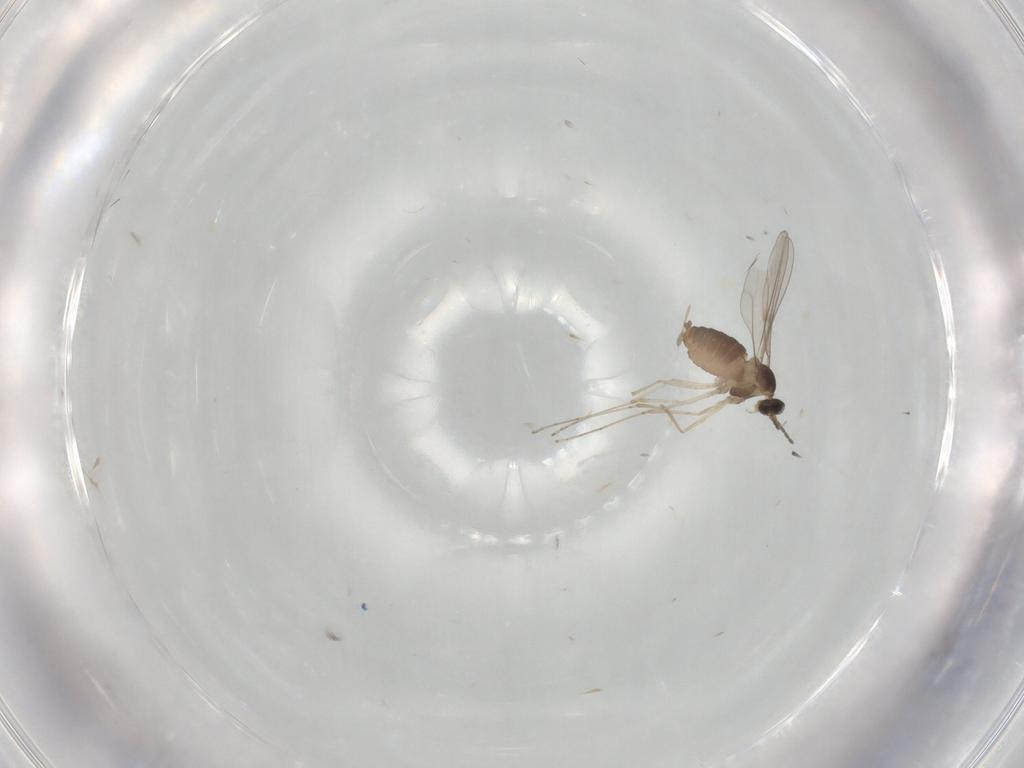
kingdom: Animalia
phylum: Arthropoda
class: Insecta
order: Diptera
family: Cecidomyiidae
